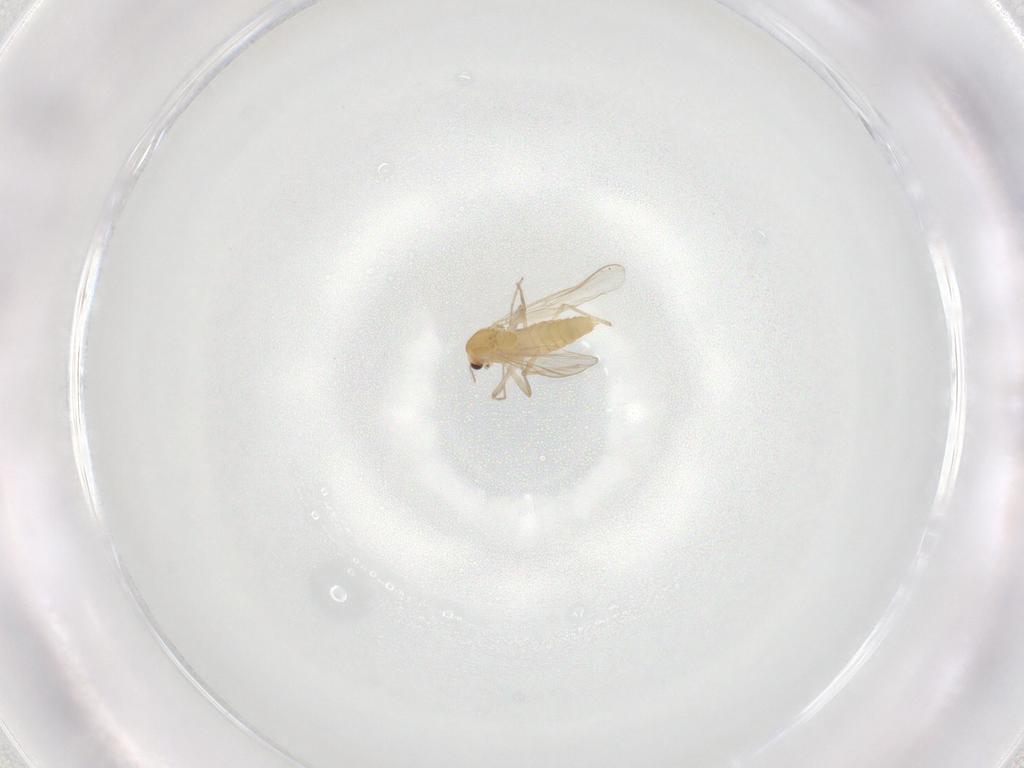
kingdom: Animalia
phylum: Arthropoda
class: Insecta
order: Diptera
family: Chironomidae
